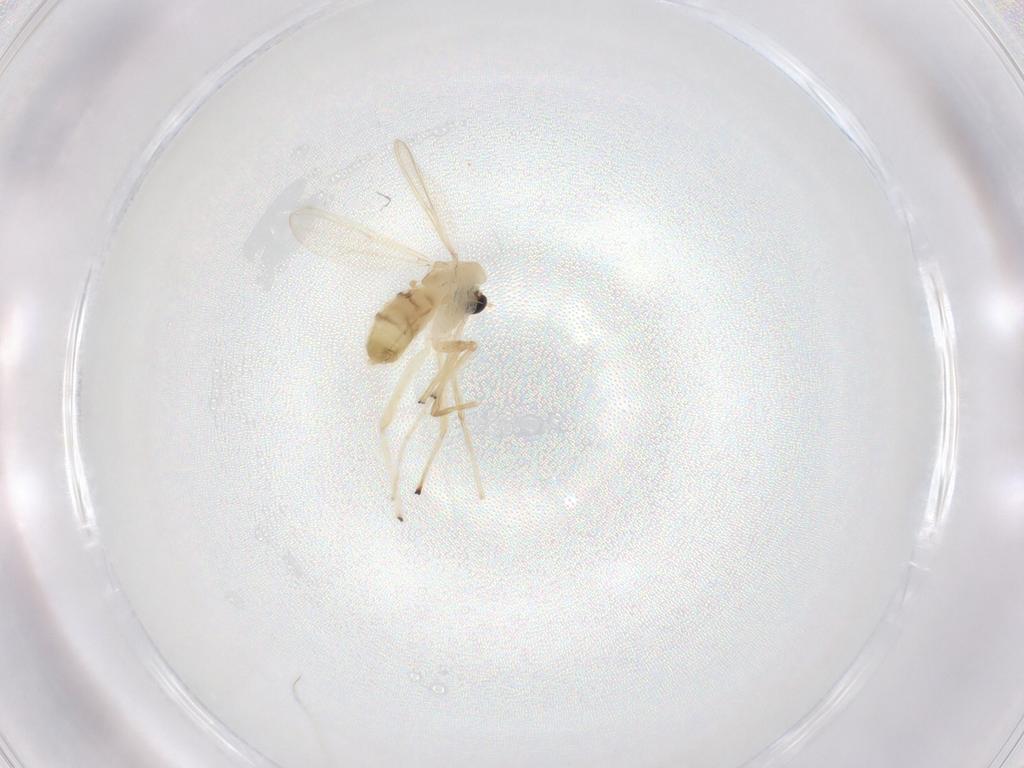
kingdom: Animalia
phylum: Arthropoda
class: Insecta
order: Diptera
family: Chironomidae
